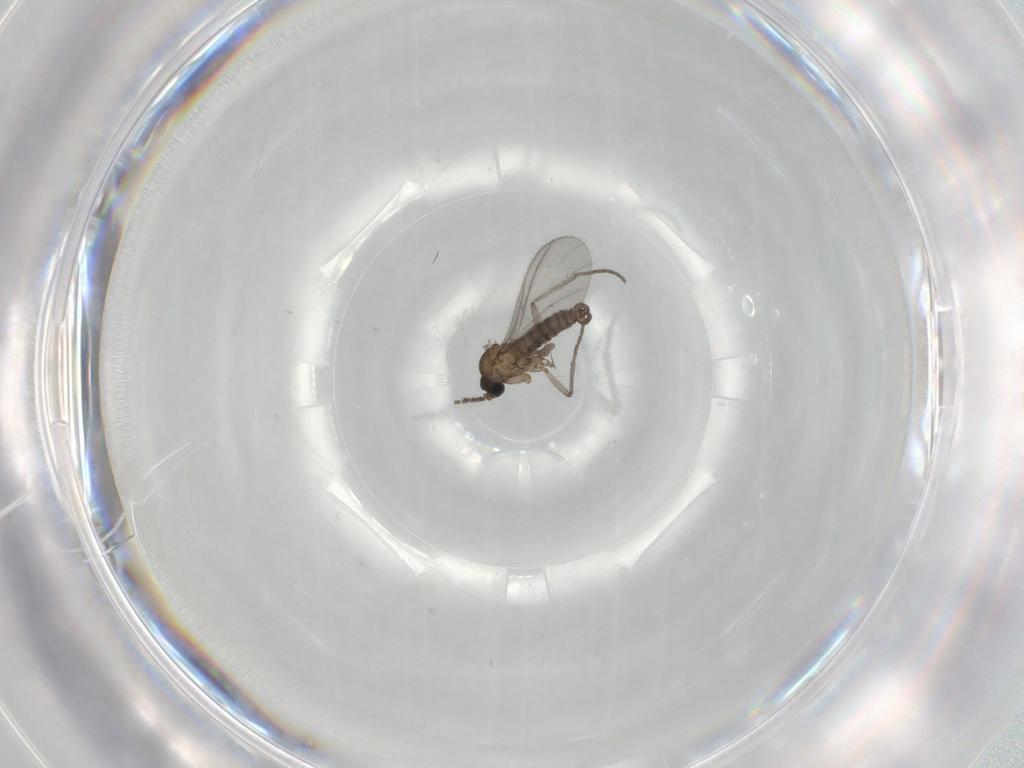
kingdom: Animalia
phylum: Arthropoda
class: Insecta
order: Diptera
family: Sciaridae
